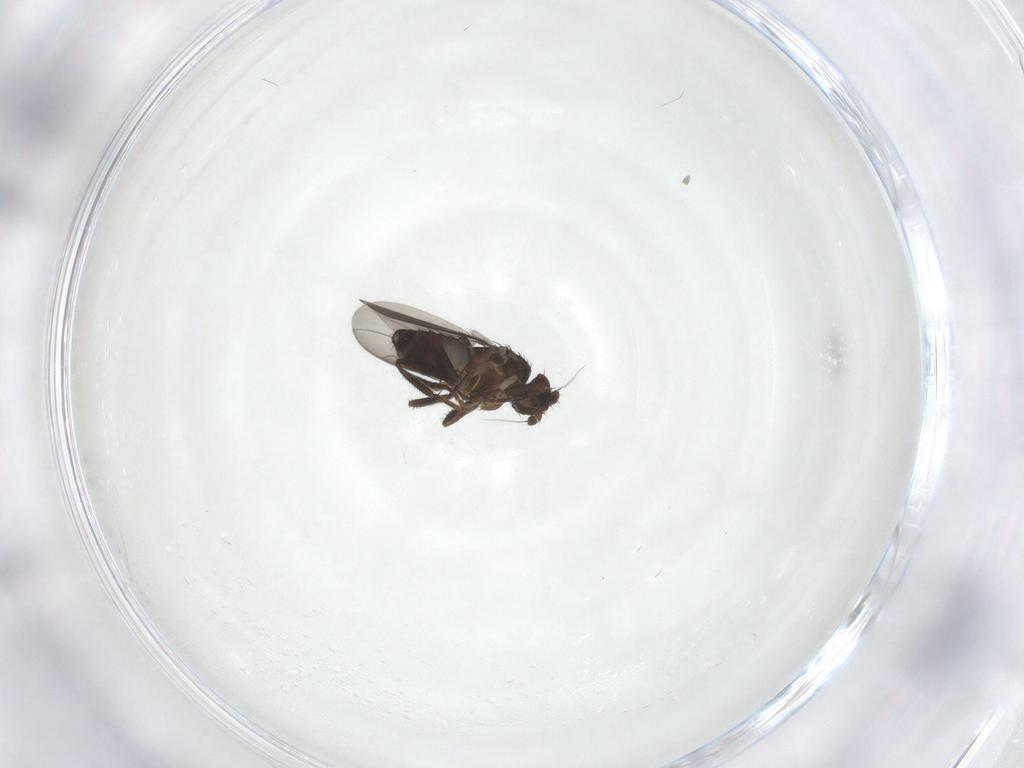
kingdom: Animalia
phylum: Arthropoda
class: Insecta
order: Diptera
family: Sphaeroceridae
